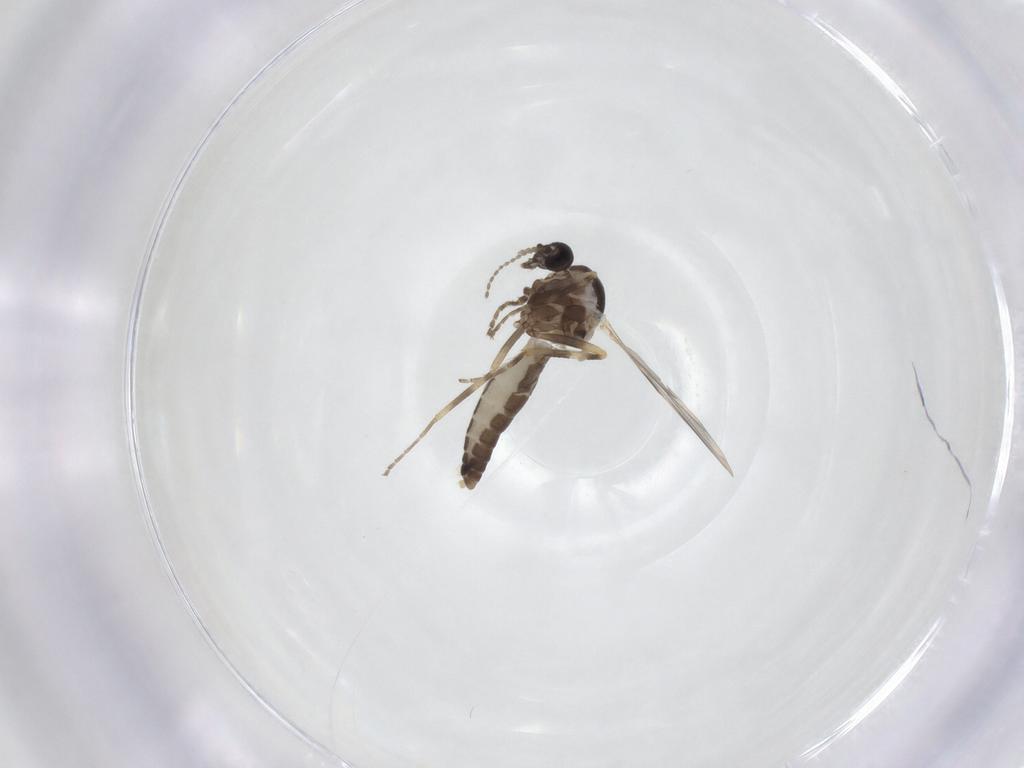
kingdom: Animalia
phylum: Arthropoda
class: Insecta
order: Diptera
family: Ceratopogonidae
